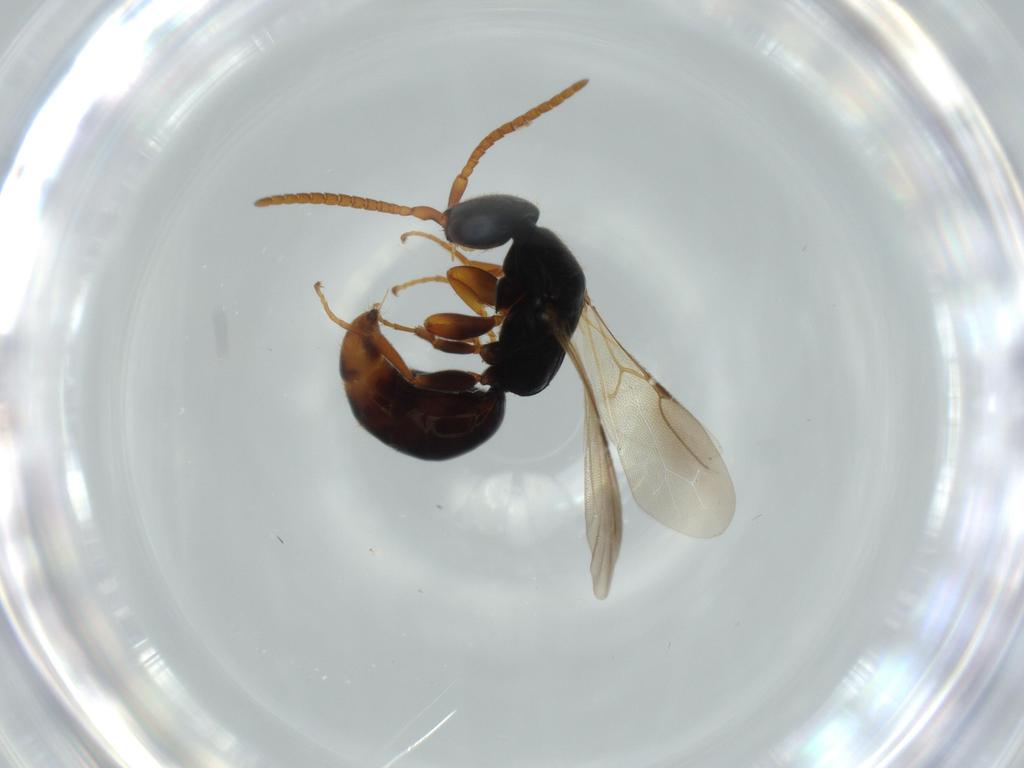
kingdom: Animalia
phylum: Arthropoda
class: Insecta
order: Hymenoptera
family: Bethylidae
